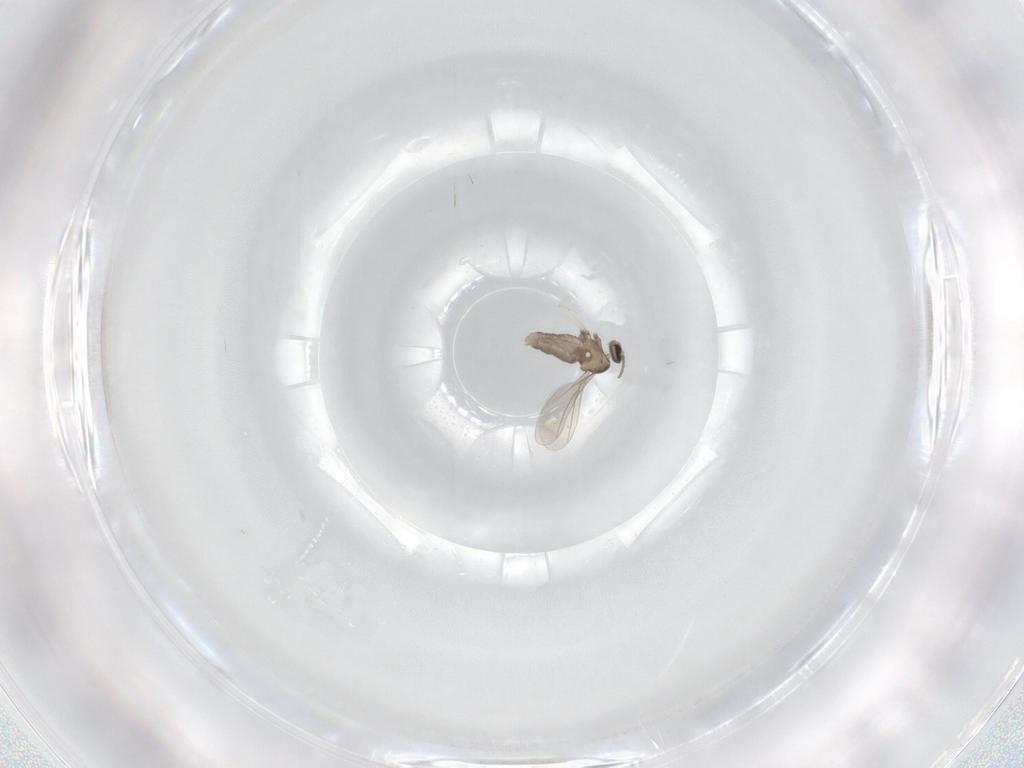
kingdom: Animalia
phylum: Arthropoda
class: Insecta
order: Diptera
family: Cecidomyiidae
